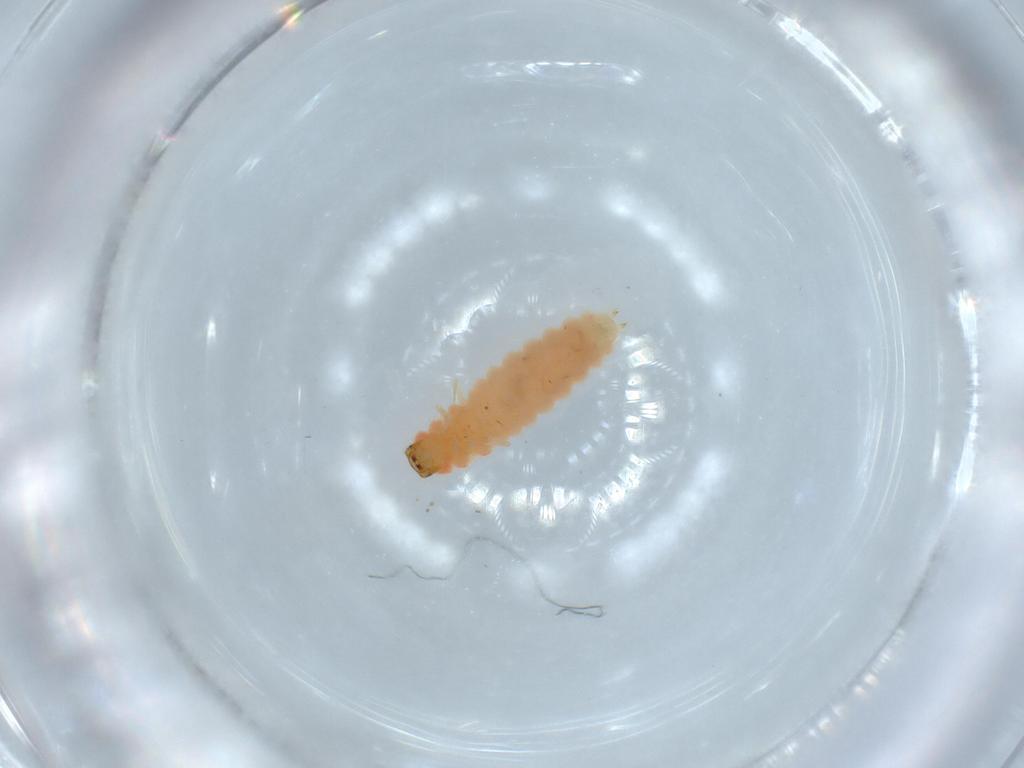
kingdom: Animalia
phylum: Arthropoda
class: Insecta
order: Coleoptera
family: Melyridae
